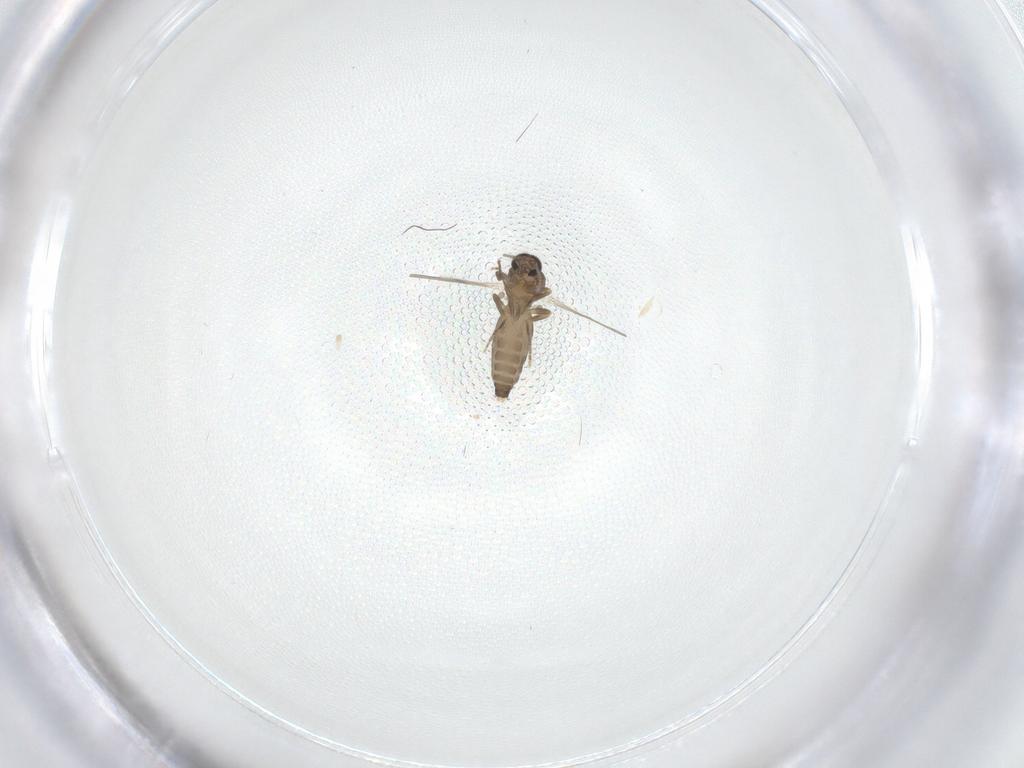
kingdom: Animalia
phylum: Arthropoda
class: Insecta
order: Diptera
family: Ceratopogonidae
